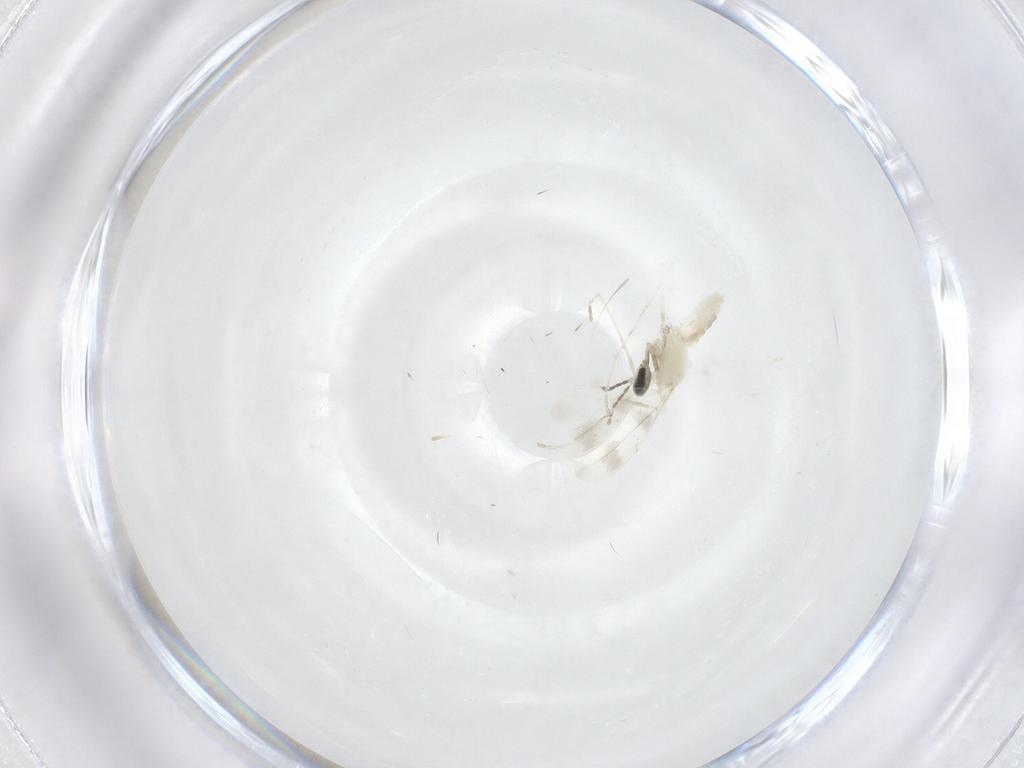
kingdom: Animalia
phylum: Arthropoda
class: Insecta
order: Diptera
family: Cecidomyiidae
